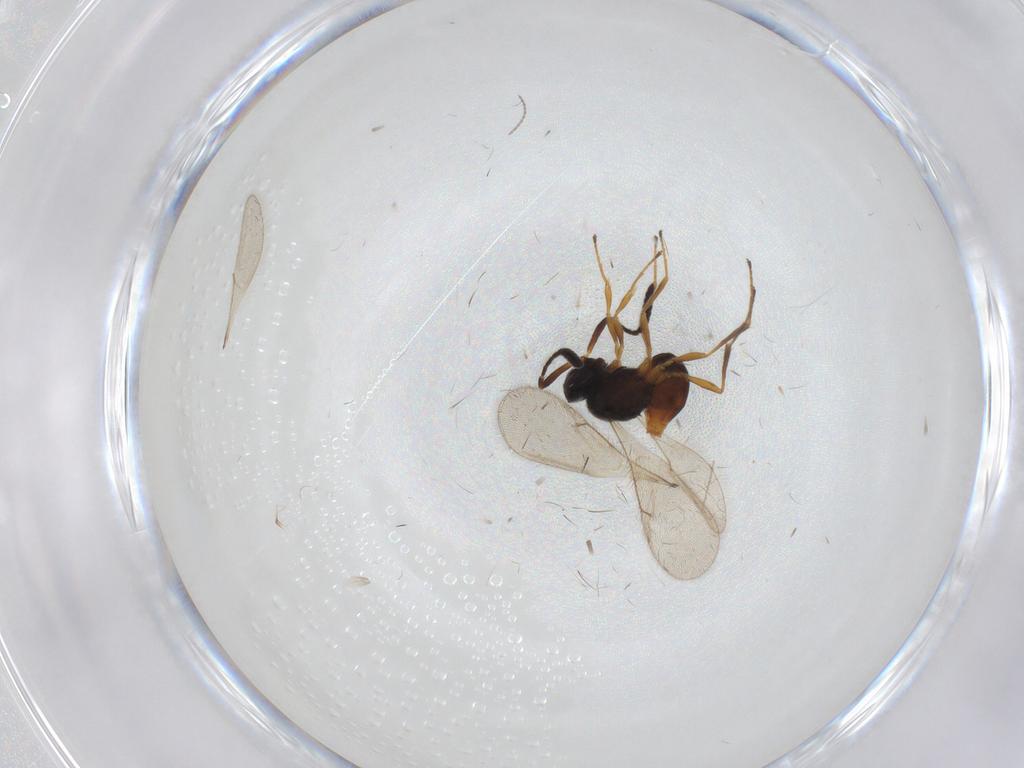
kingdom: Animalia
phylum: Arthropoda
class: Insecta
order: Hymenoptera
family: Scelionidae
